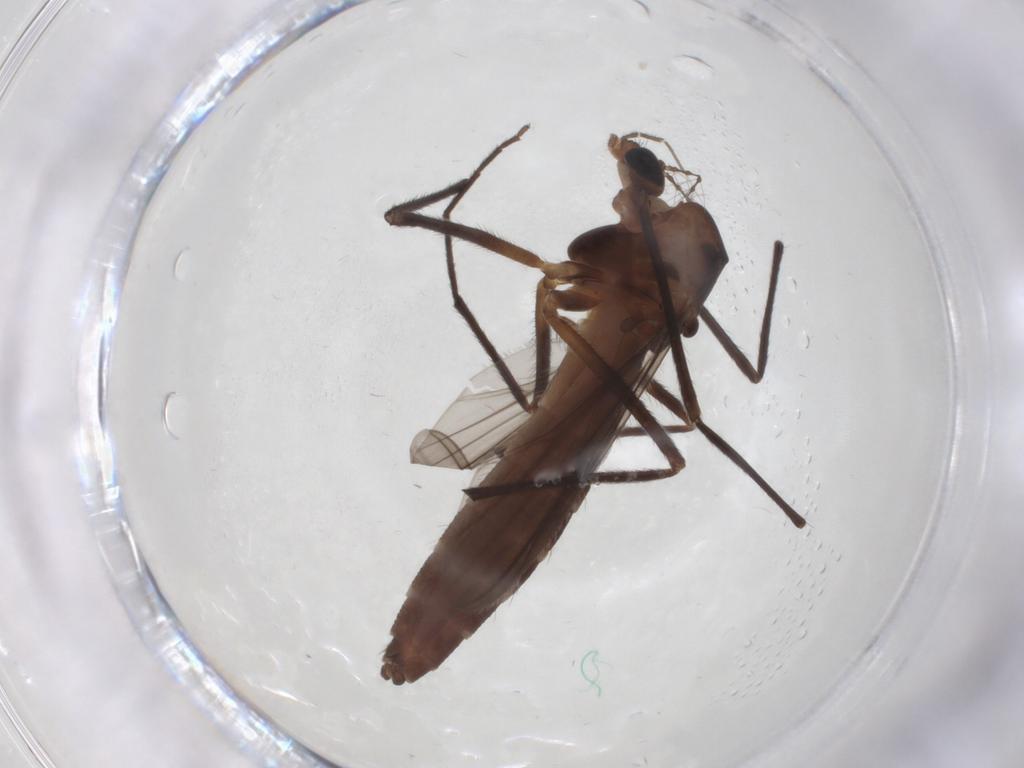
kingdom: Animalia
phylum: Arthropoda
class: Insecta
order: Diptera
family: Chironomidae
